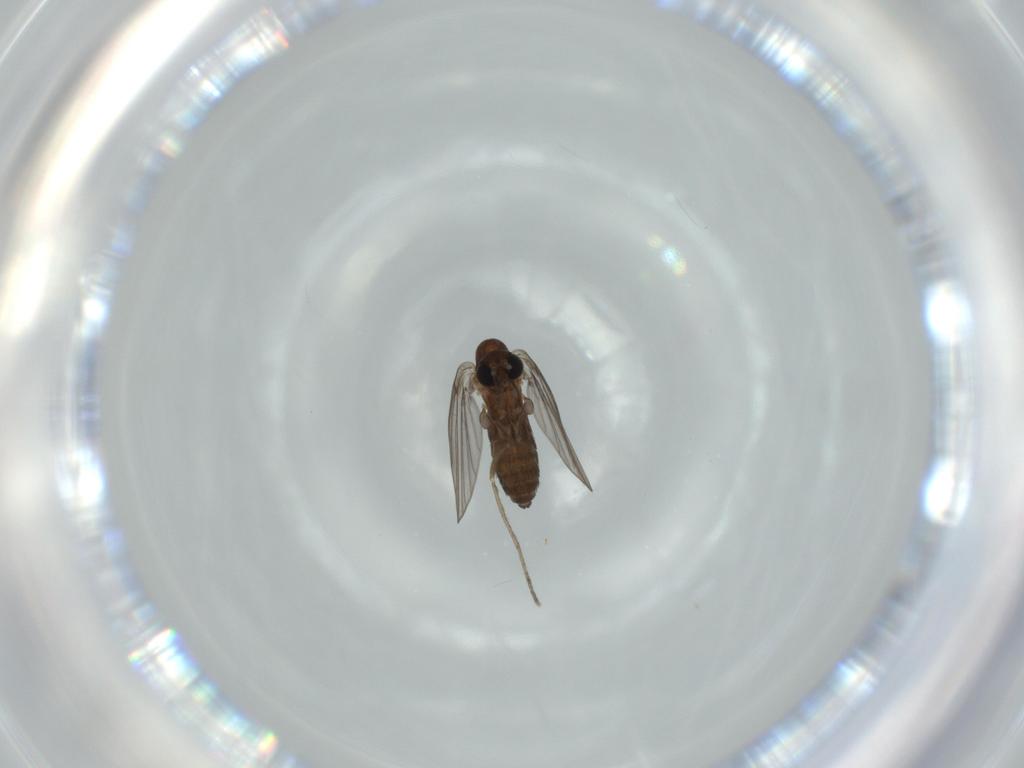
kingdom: Animalia
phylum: Arthropoda
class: Insecta
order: Diptera
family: Psychodidae
